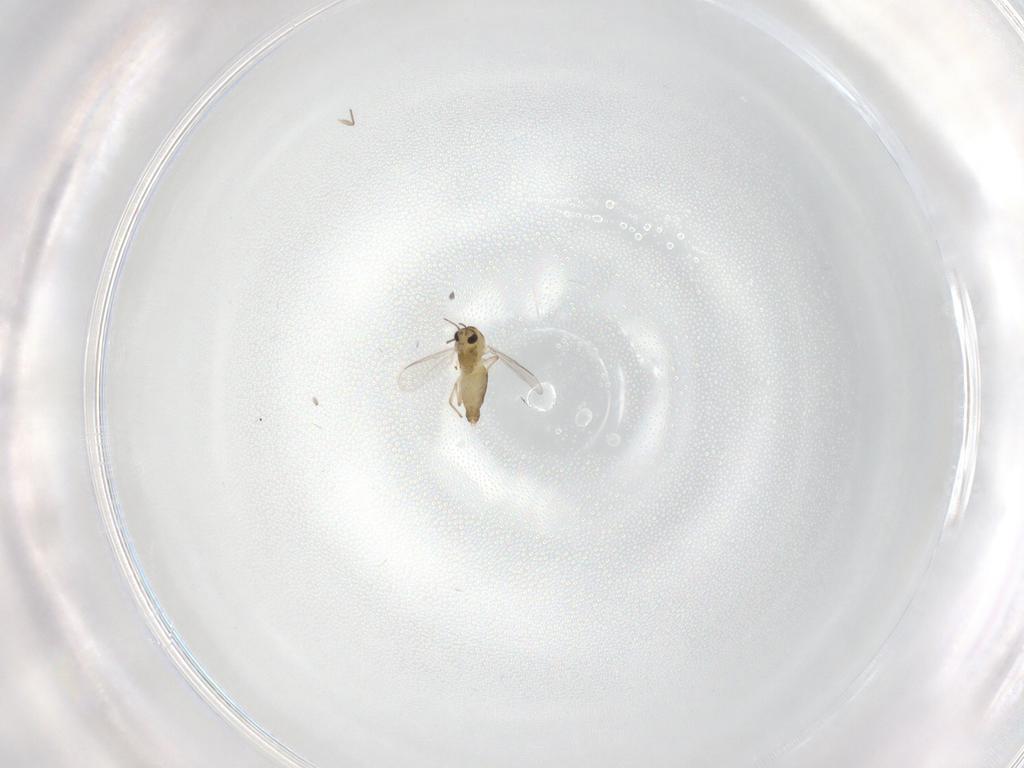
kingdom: Animalia
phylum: Arthropoda
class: Insecta
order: Diptera
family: Chironomidae
